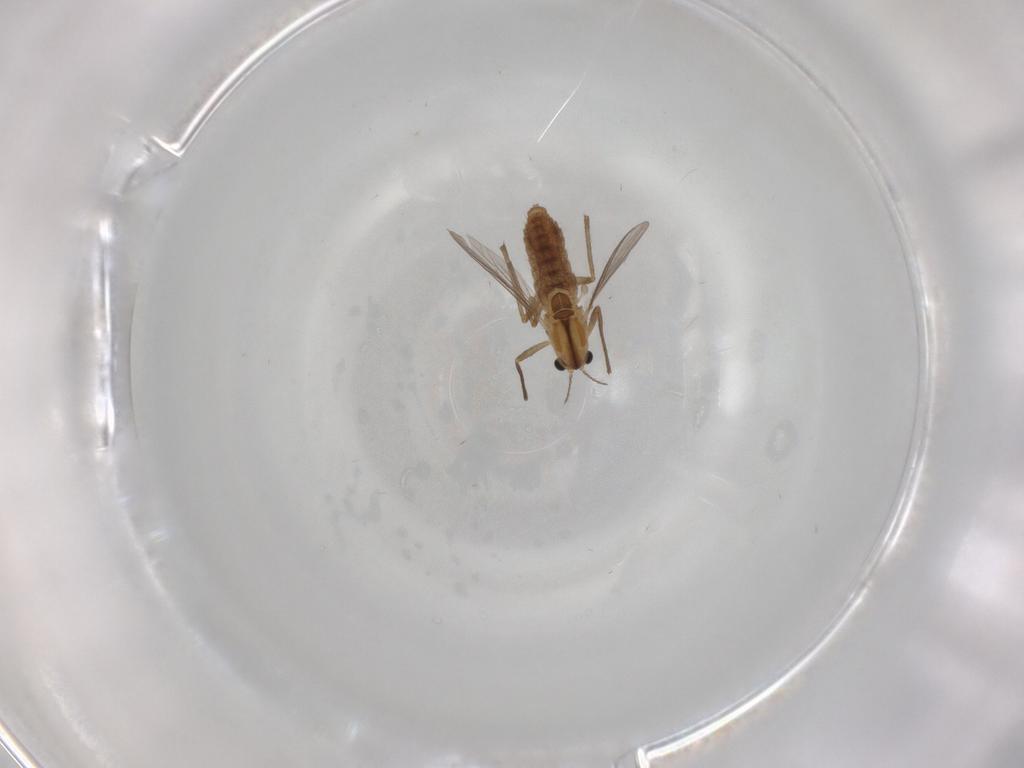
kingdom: Animalia
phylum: Arthropoda
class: Insecta
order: Diptera
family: Chironomidae
